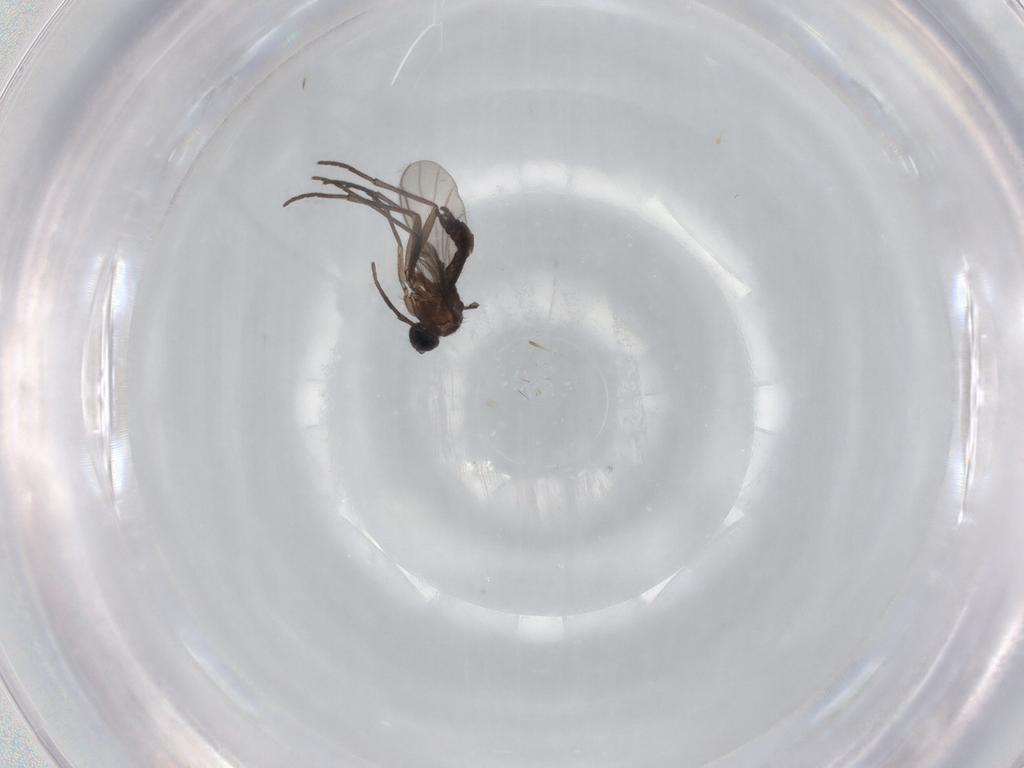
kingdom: Animalia
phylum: Arthropoda
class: Insecta
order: Diptera
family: Sciaridae
